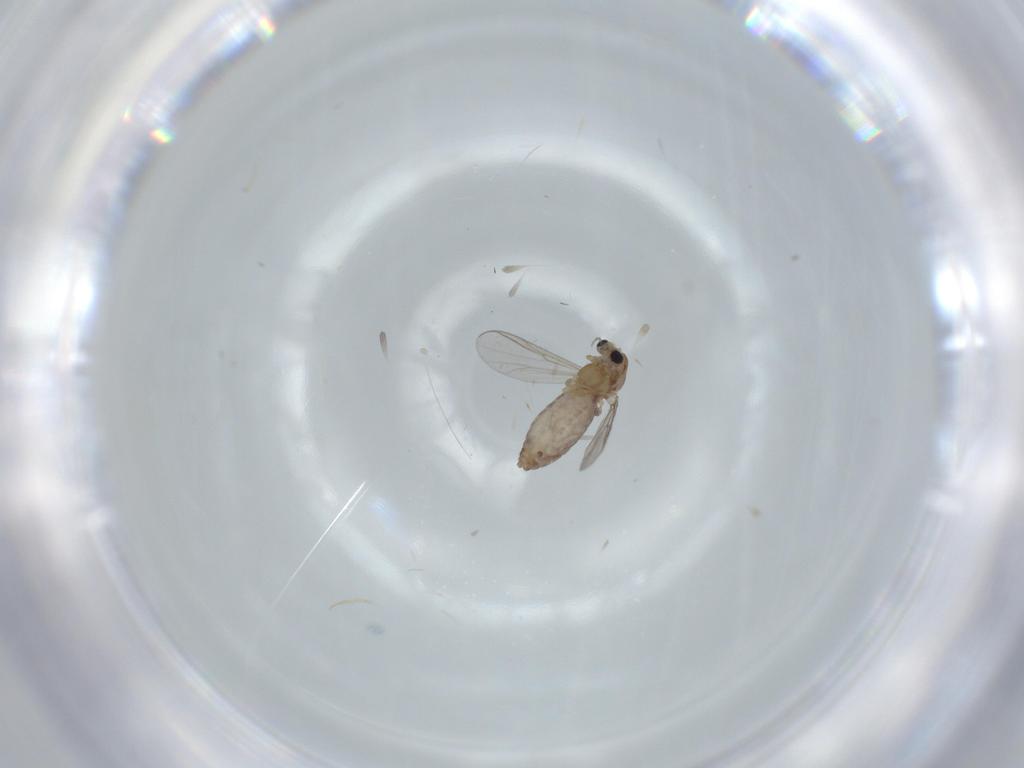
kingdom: Animalia
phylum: Arthropoda
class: Insecta
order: Diptera
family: Chironomidae
